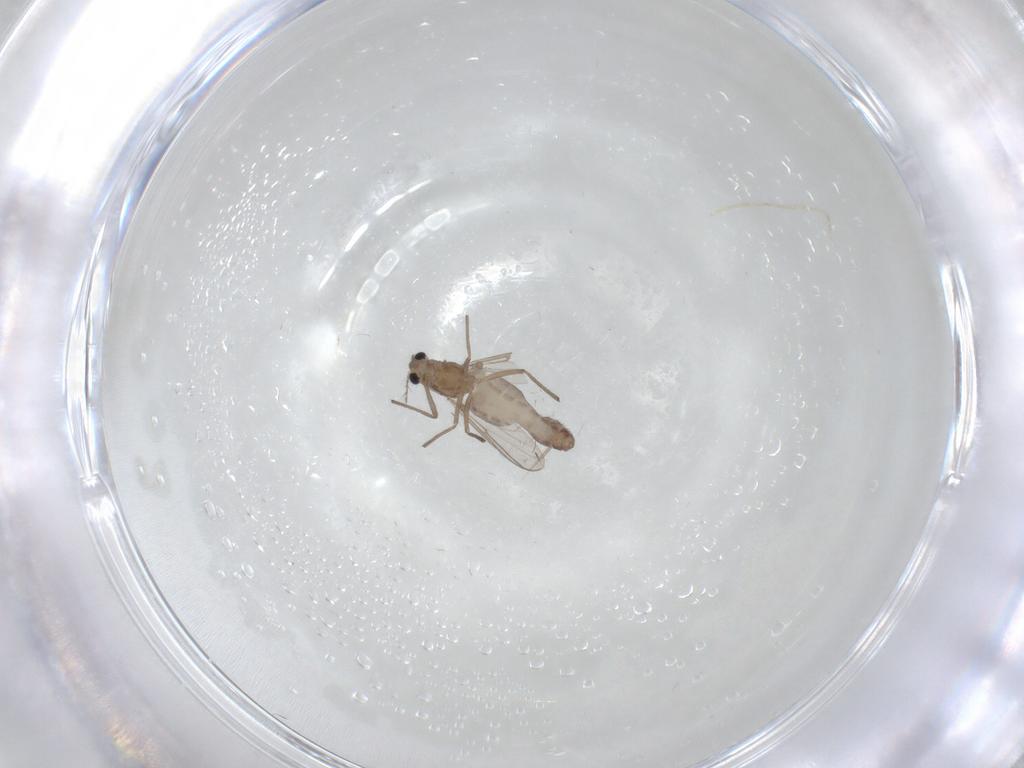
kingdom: Animalia
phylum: Arthropoda
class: Insecta
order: Diptera
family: Chironomidae
